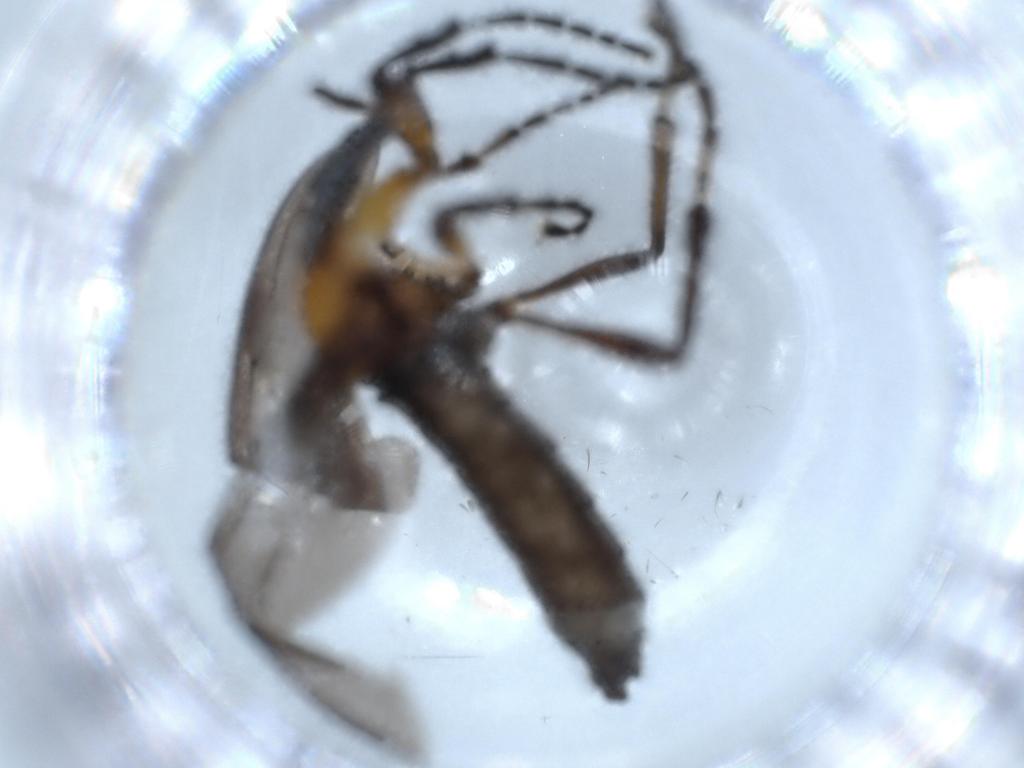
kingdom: Animalia
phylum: Arthropoda
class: Insecta
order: Diptera
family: Bibionidae
